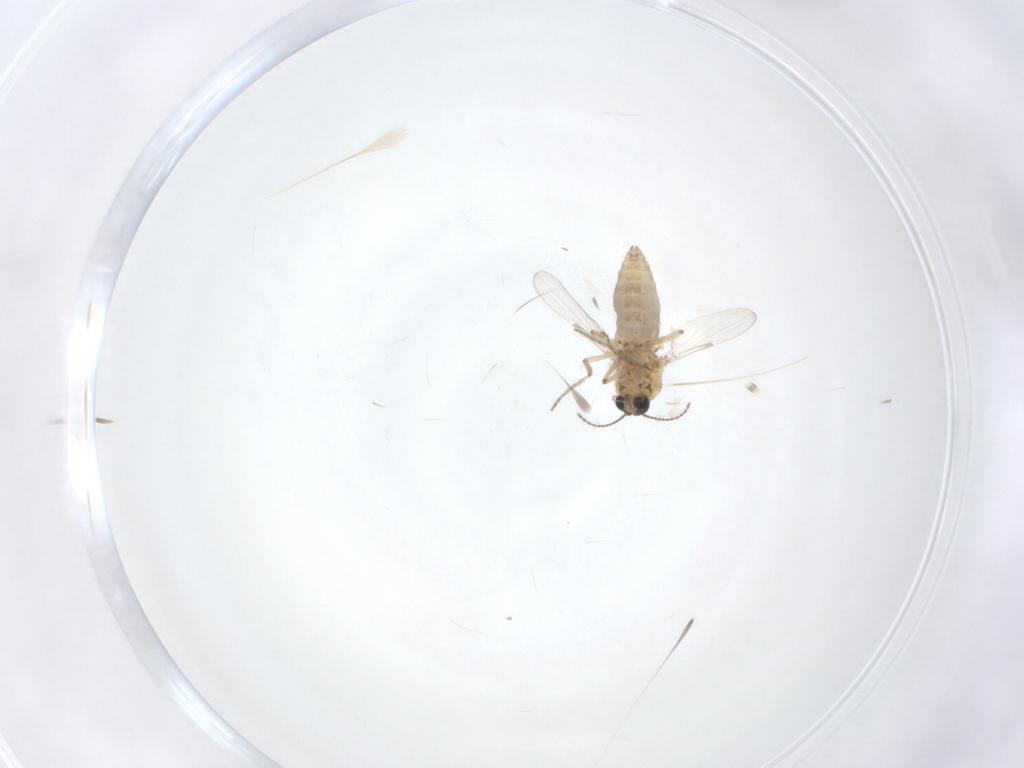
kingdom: Animalia
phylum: Arthropoda
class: Insecta
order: Diptera
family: Ceratopogonidae
